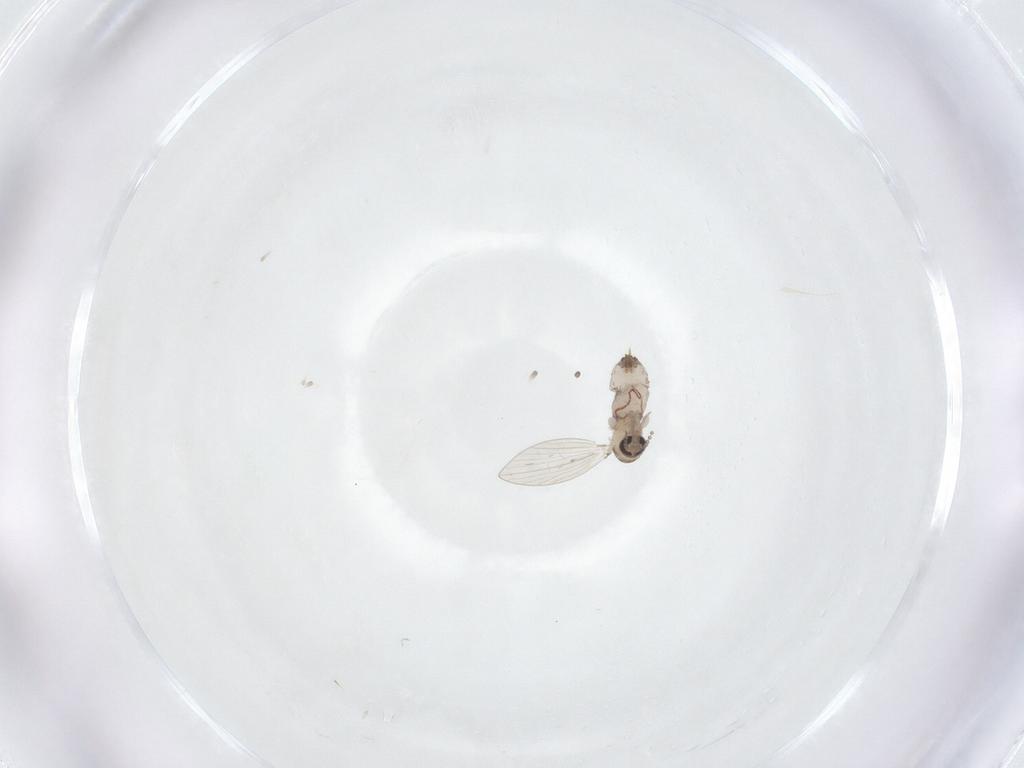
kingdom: Animalia
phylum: Arthropoda
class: Insecta
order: Diptera
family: Psychodidae
